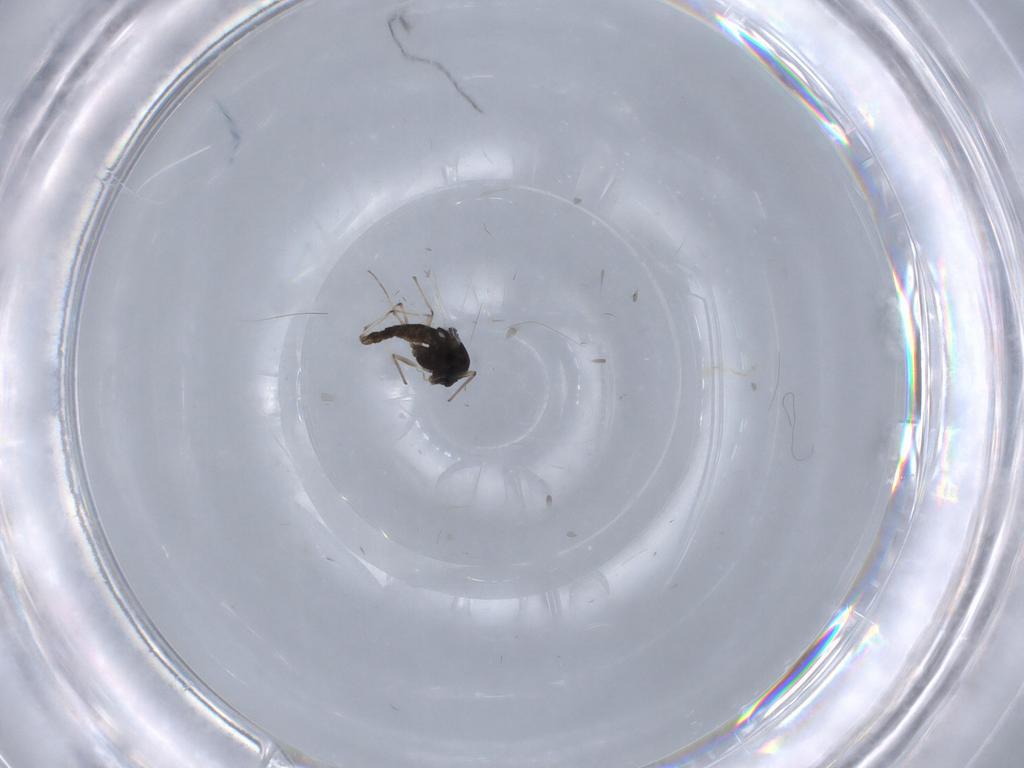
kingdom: Animalia
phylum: Arthropoda
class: Insecta
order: Diptera
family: Chironomidae
